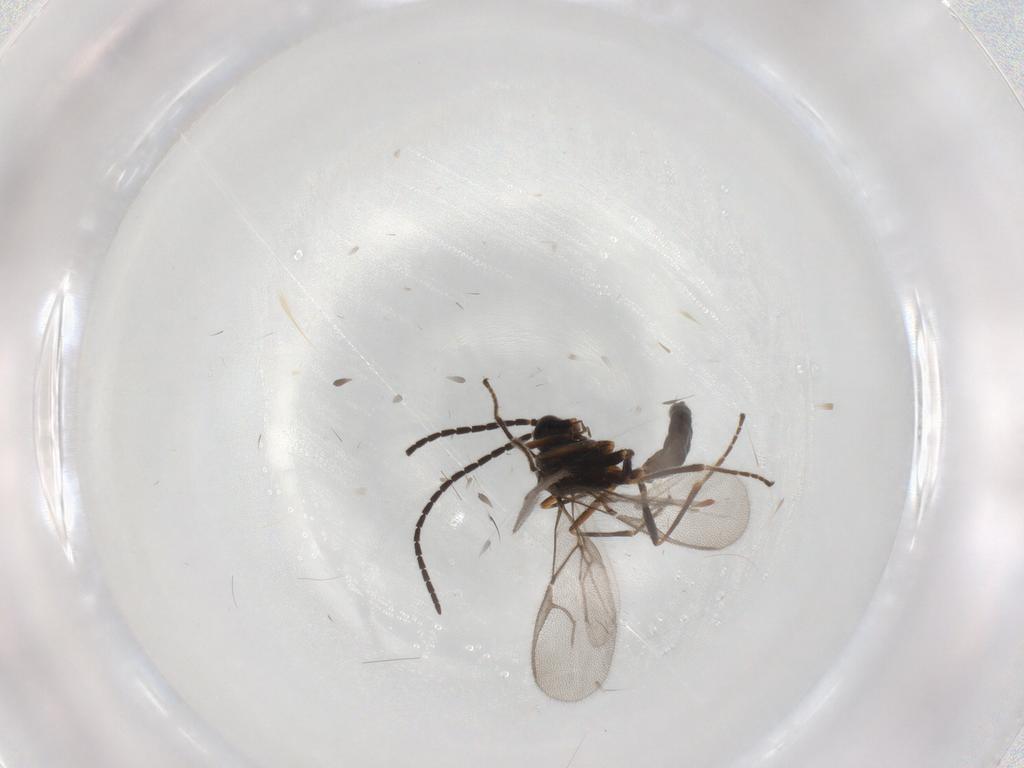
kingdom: Animalia
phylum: Arthropoda
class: Insecta
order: Hymenoptera
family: Braconidae
